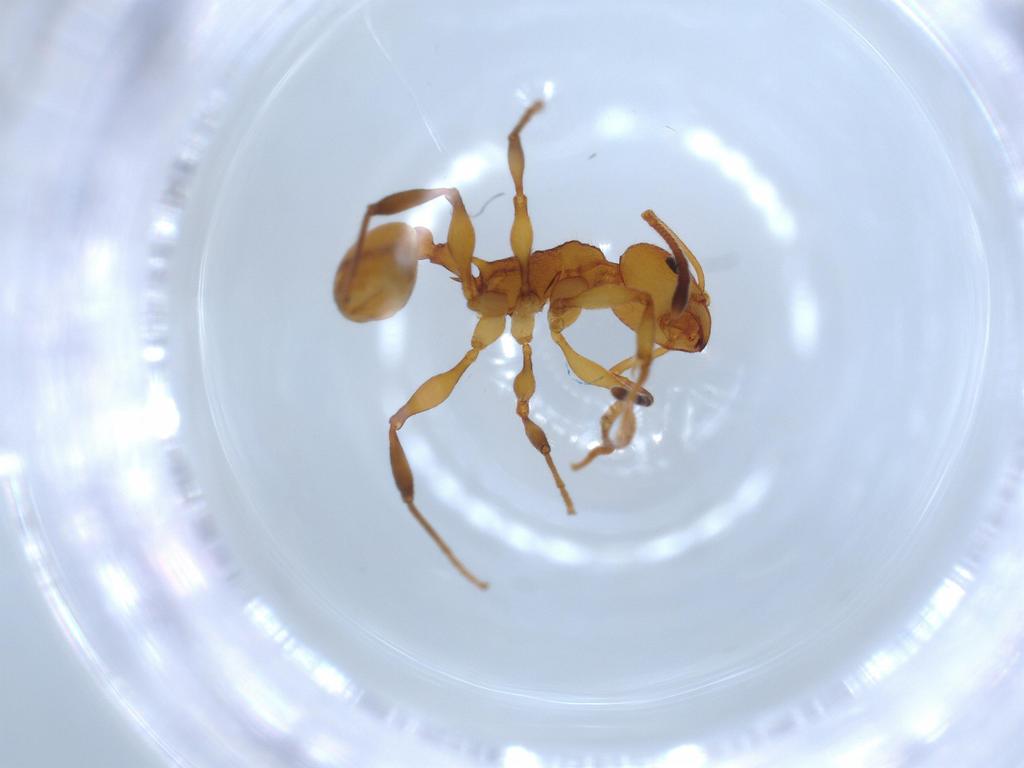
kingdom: Animalia
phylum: Arthropoda
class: Insecta
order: Hymenoptera
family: Formicidae
